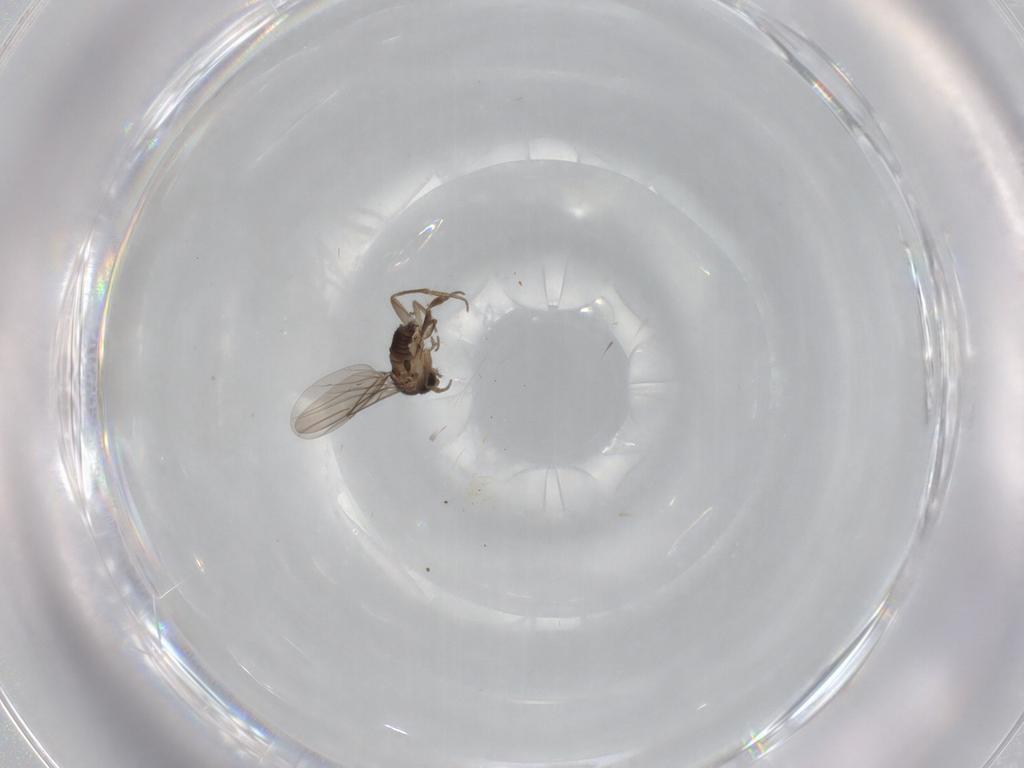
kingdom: Animalia
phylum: Arthropoda
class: Insecta
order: Diptera
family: Cecidomyiidae
